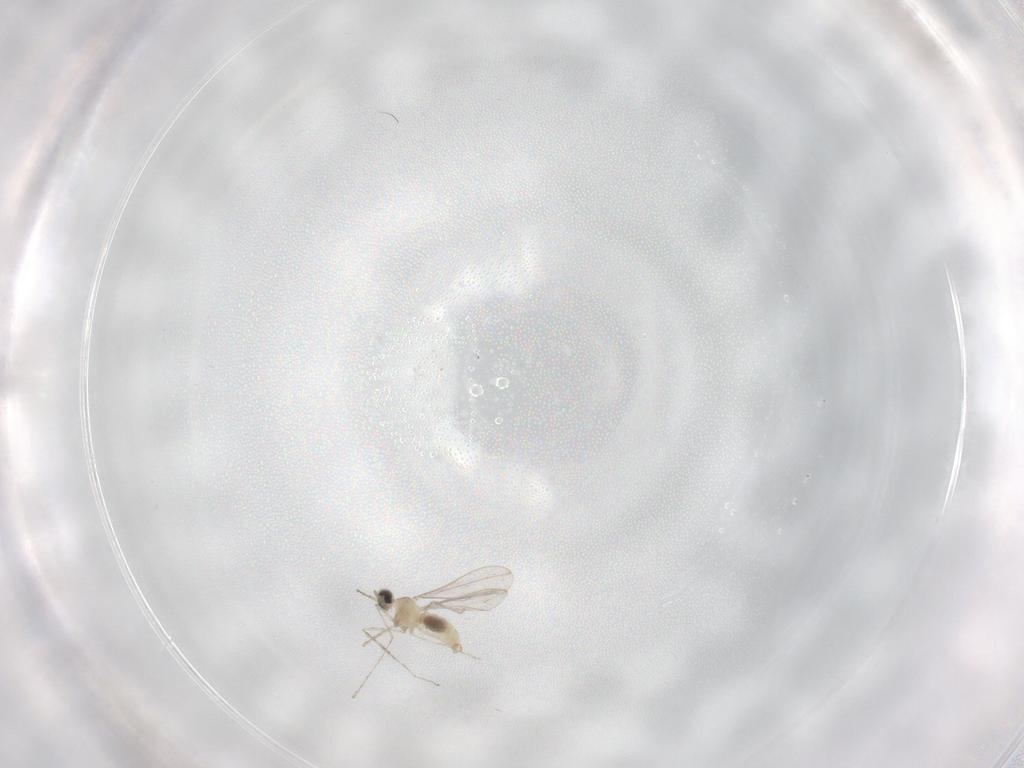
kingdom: Animalia
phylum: Arthropoda
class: Insecta
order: Diptera
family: Cecidomyiidae
